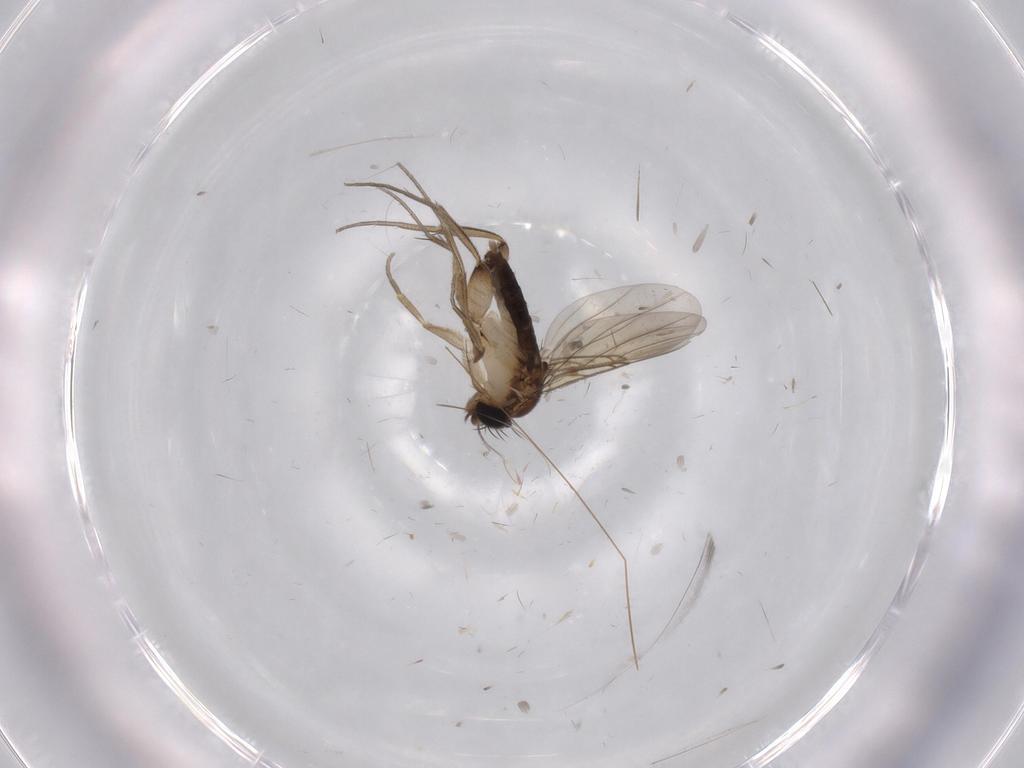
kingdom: Animalia
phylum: Arthropoda
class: Insecta
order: Diptera
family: Phoridae
